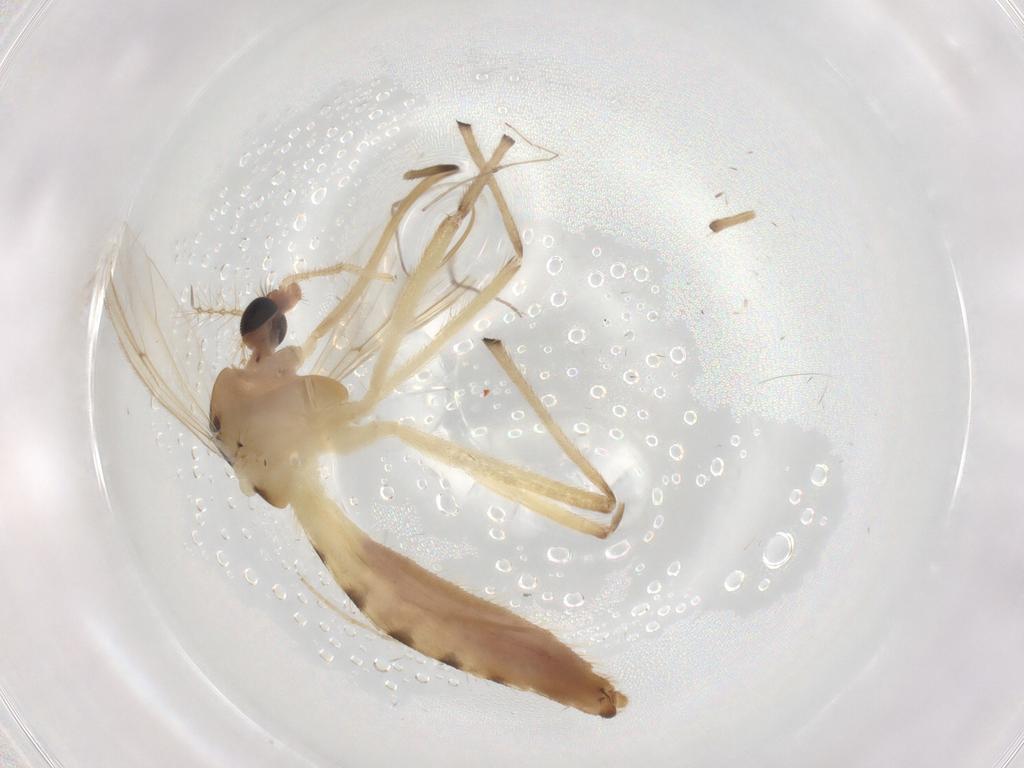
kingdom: Animalia
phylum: Arthropoda
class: Insecta
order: Diptera
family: Chironomidae
